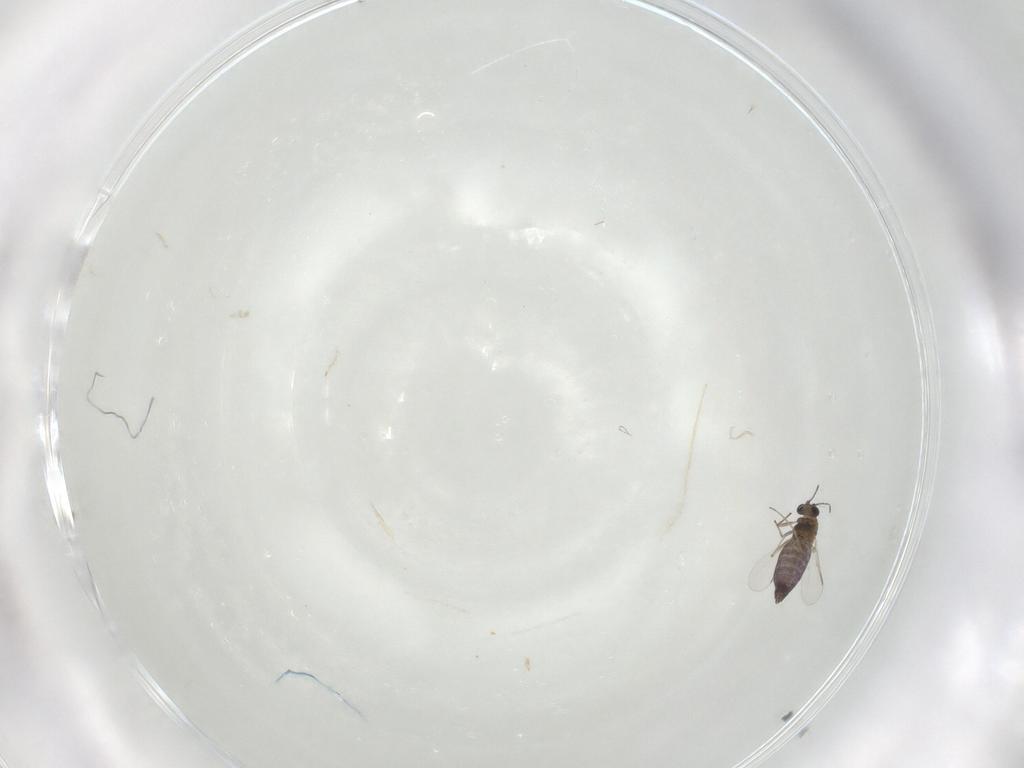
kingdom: Animalia
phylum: Arthropoda
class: Insecta
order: Diptera
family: Chironomidae
